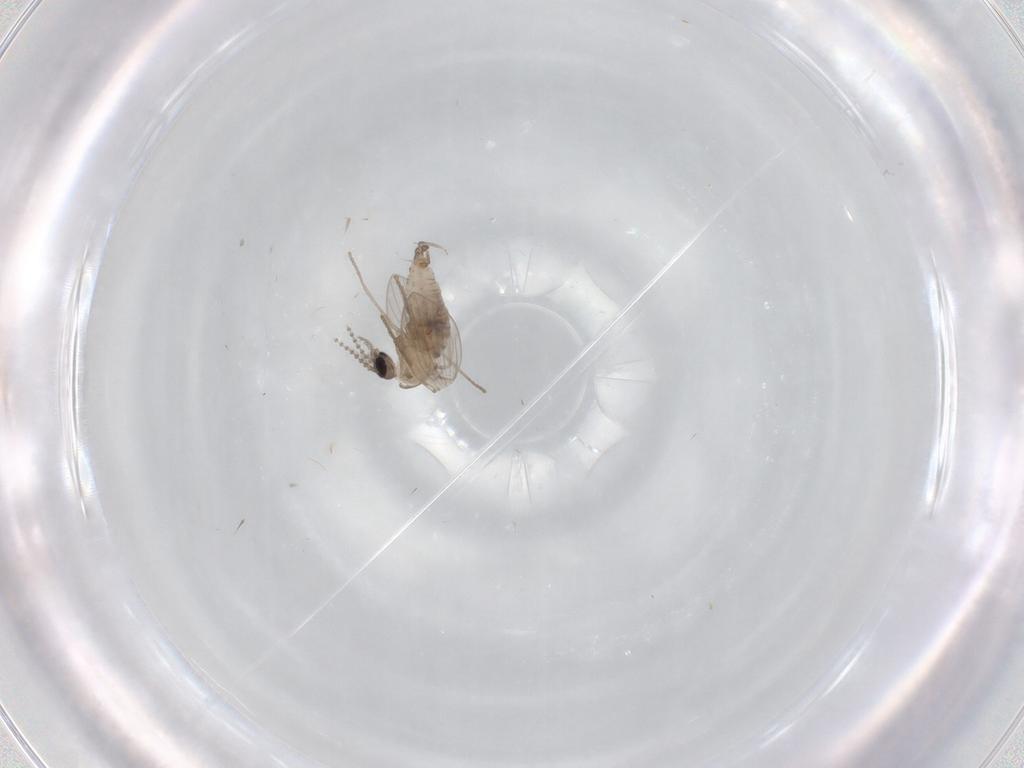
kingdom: Animalia
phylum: Arthropoda
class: Insecta
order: Diptera
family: Psychodidae
